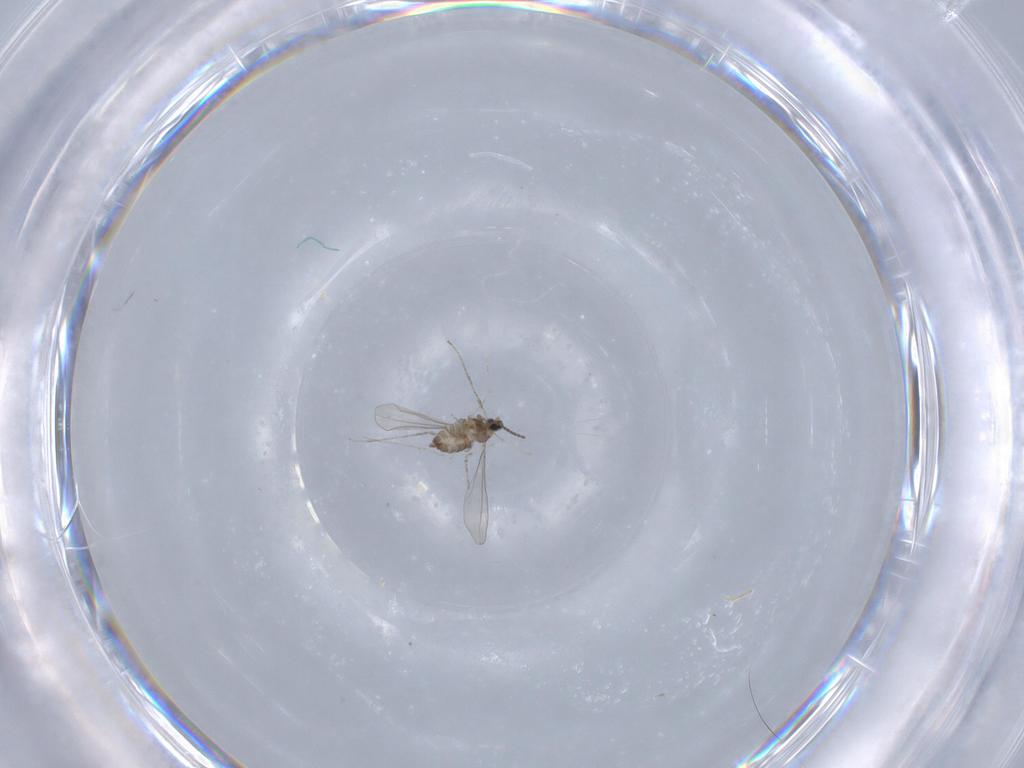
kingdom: Animalia
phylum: Arthropoda
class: Insecta
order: Diptera
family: Cecidomyiidae
